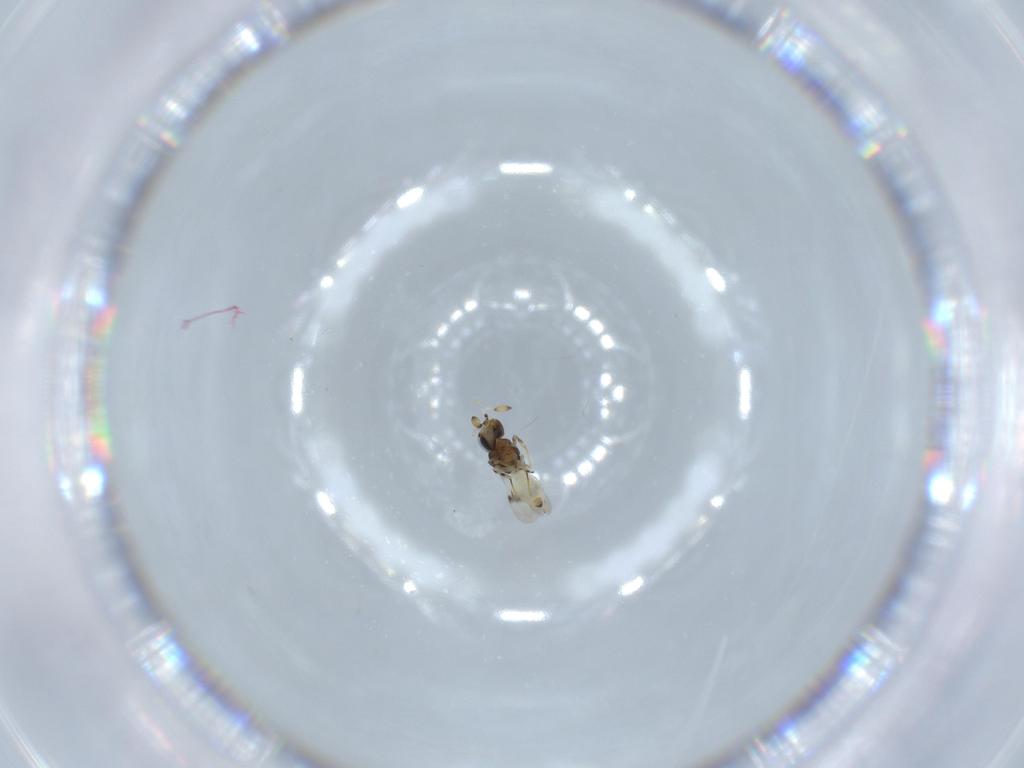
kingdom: Animalia
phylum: Arthropoda
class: Insecta
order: Hymenoptera
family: Scelionidae
